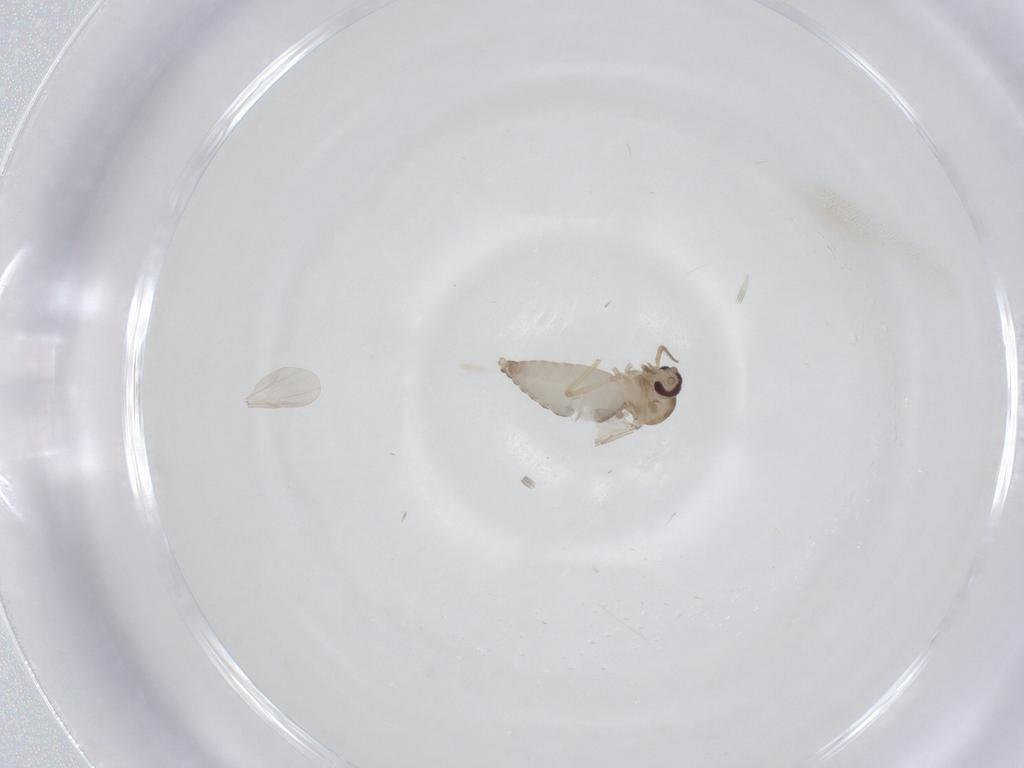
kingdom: Animalia
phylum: Arthropoda
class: Insecta
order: Diptera
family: Ceratopogonidae
